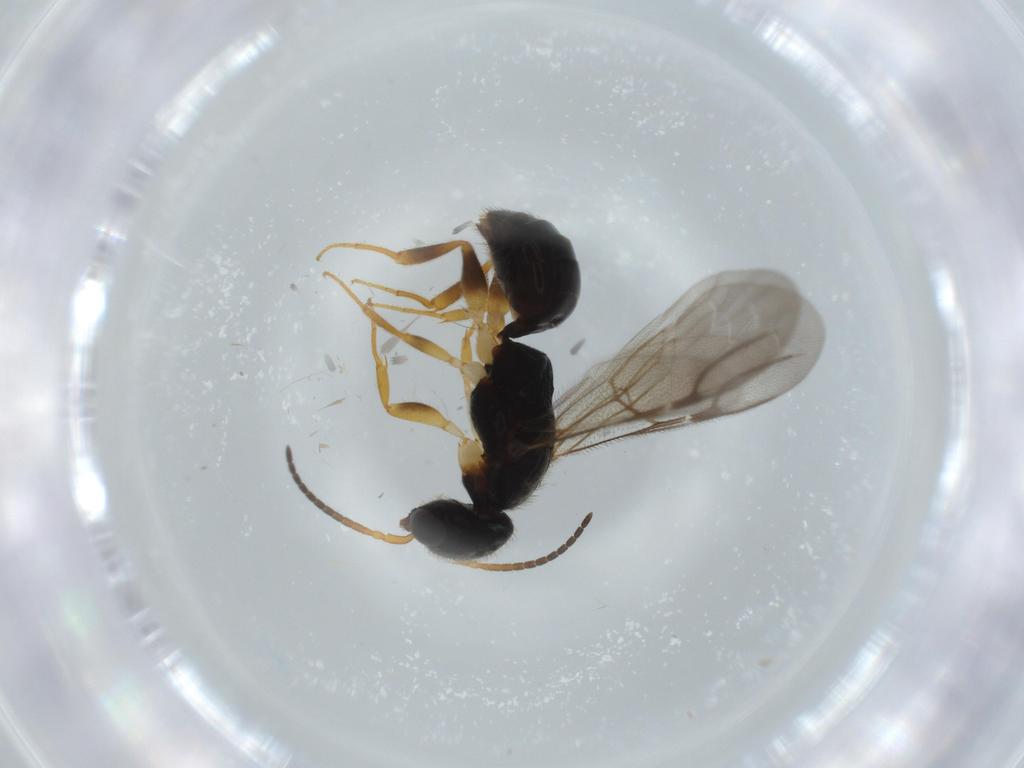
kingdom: Animalia
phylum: Arthropoda
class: Insecta
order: Hymenoptera
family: Bethylidae
